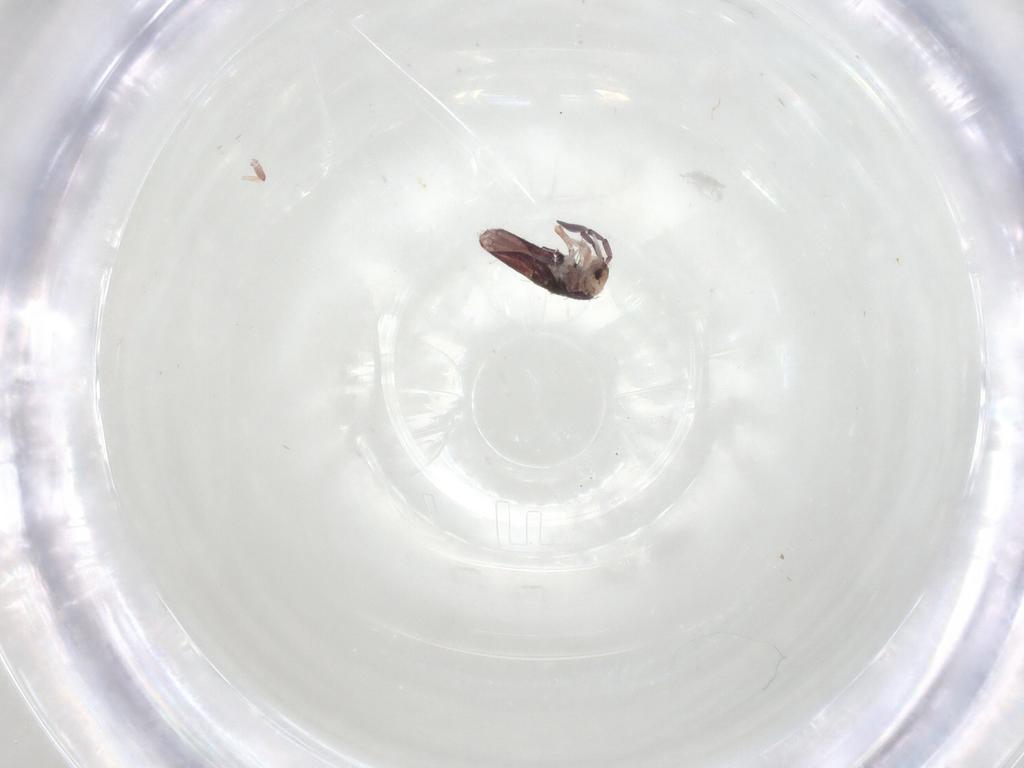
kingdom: Animalia
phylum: Arthropoda
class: Collembola
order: Entomobryomorpha
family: Entomobryidae
